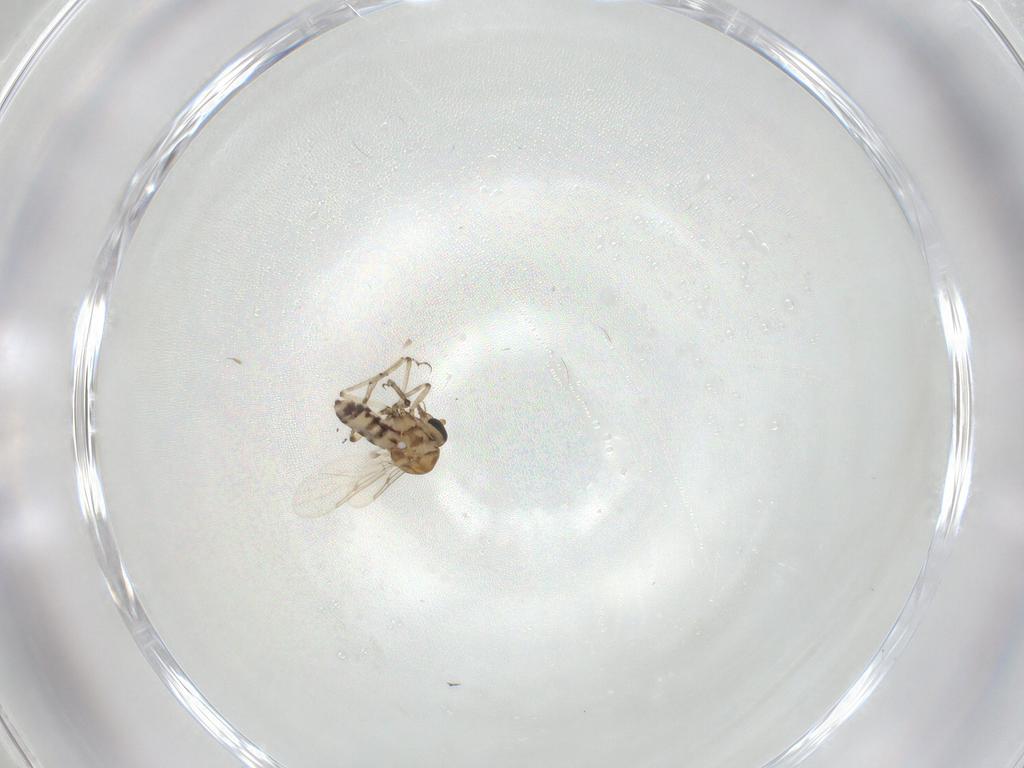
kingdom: Animalia
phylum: Arthropoda
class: Insecta
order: Diptera
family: Ceratopogonidae
